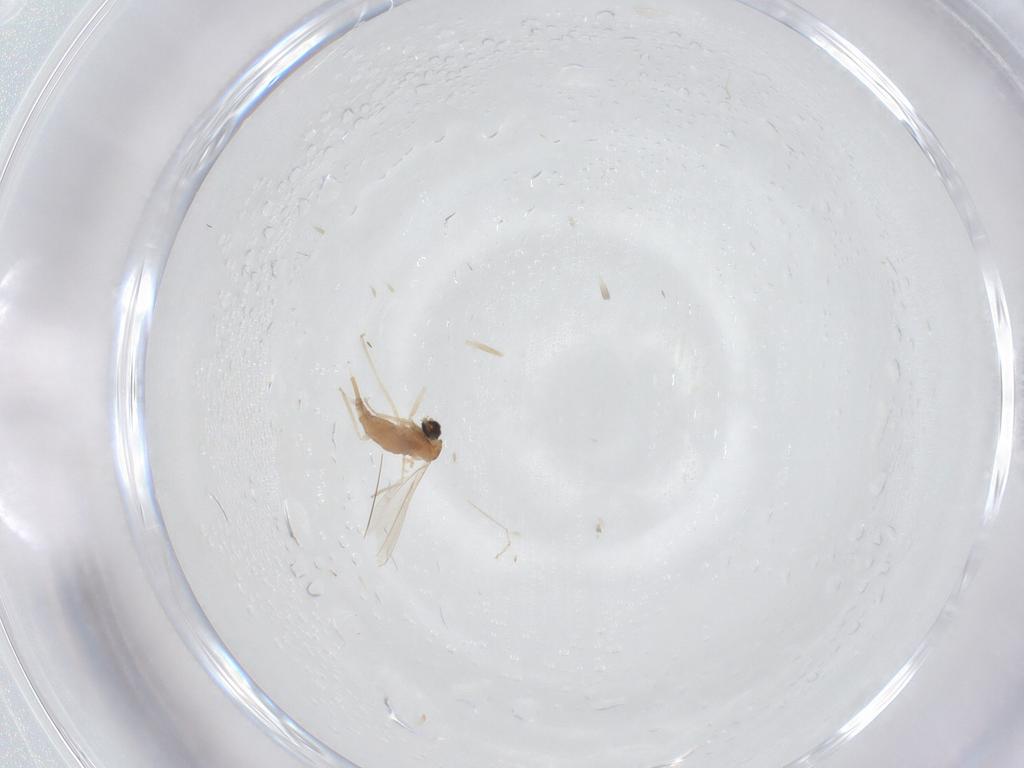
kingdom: Animalia
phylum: Arthropoda
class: Insecta
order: Diptera
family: Cecidomyiidae
